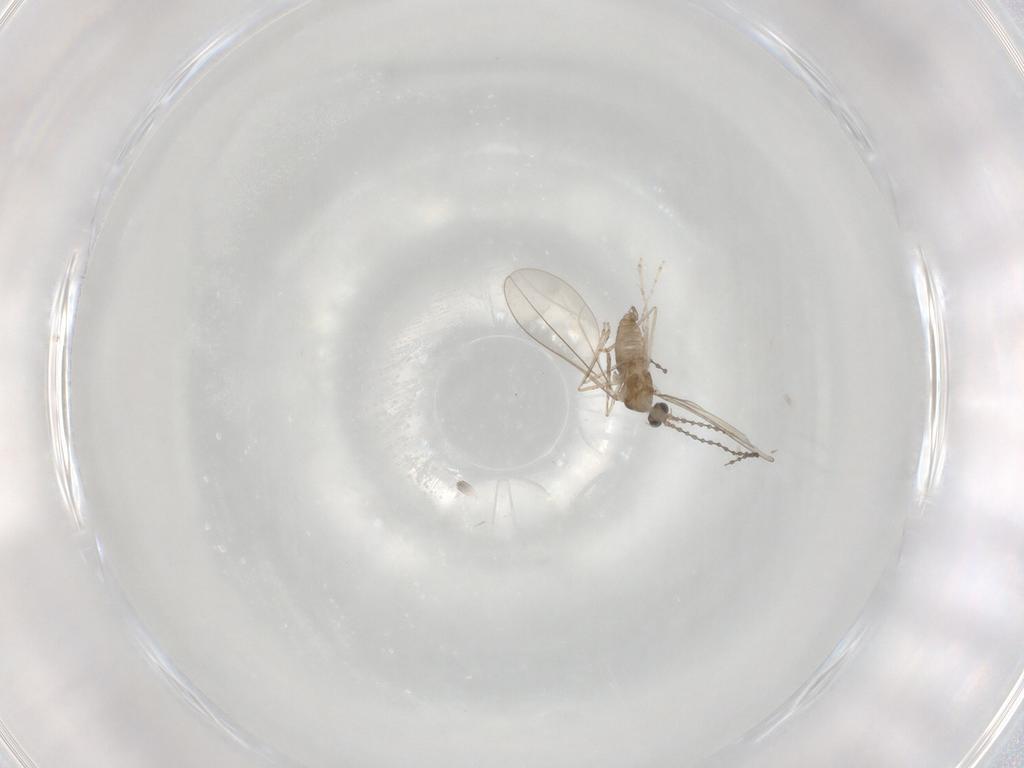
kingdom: Animalia
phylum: Arthropoda
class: Insecta
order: Diptera
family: Cecidomyiidae
